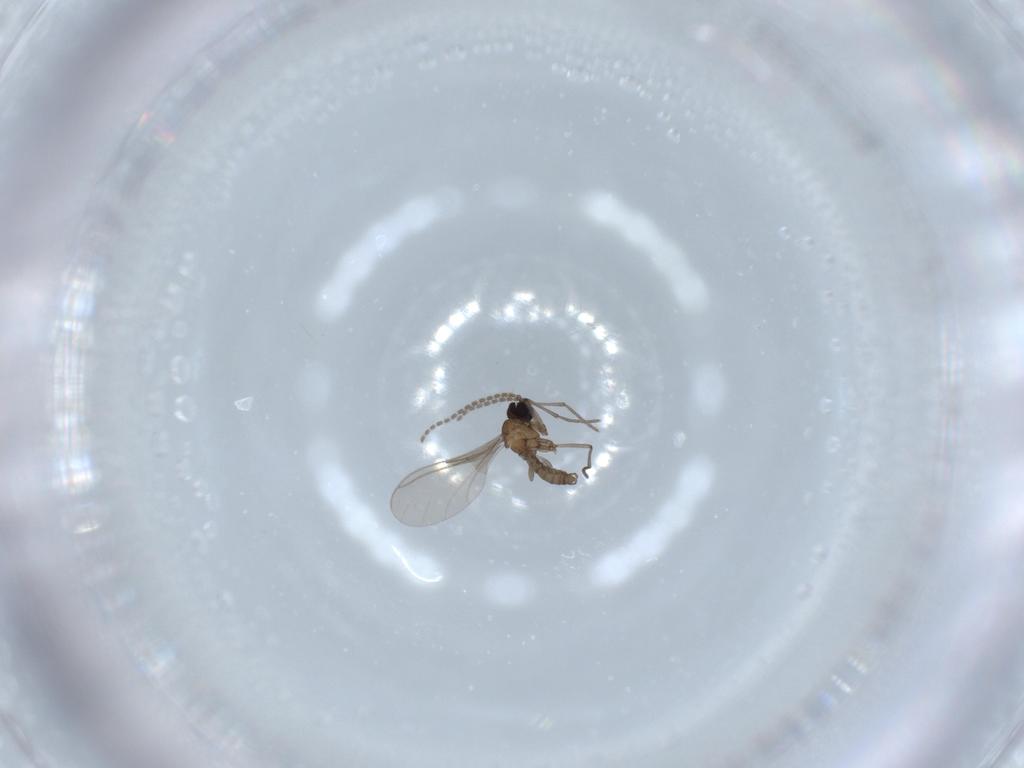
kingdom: Animalia
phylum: Arthropoda
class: Insecta
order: Diptera
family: Sciaridae
